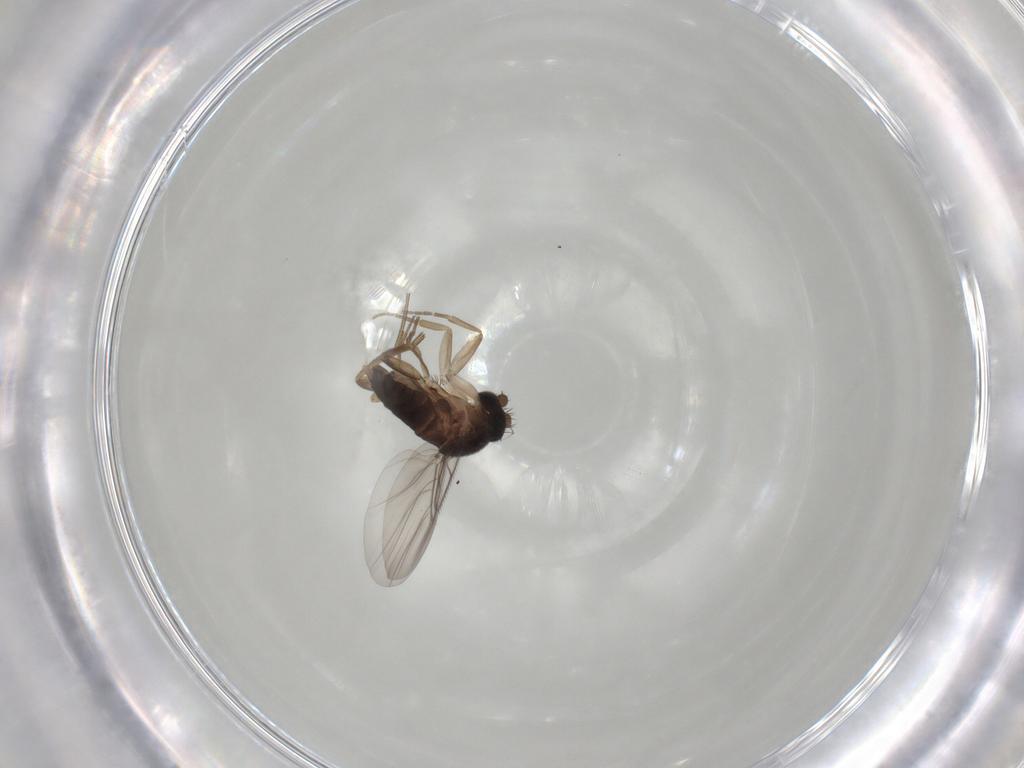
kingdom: Animalia
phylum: Arthropoda
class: Insecta
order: Diptera
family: Phoridae
